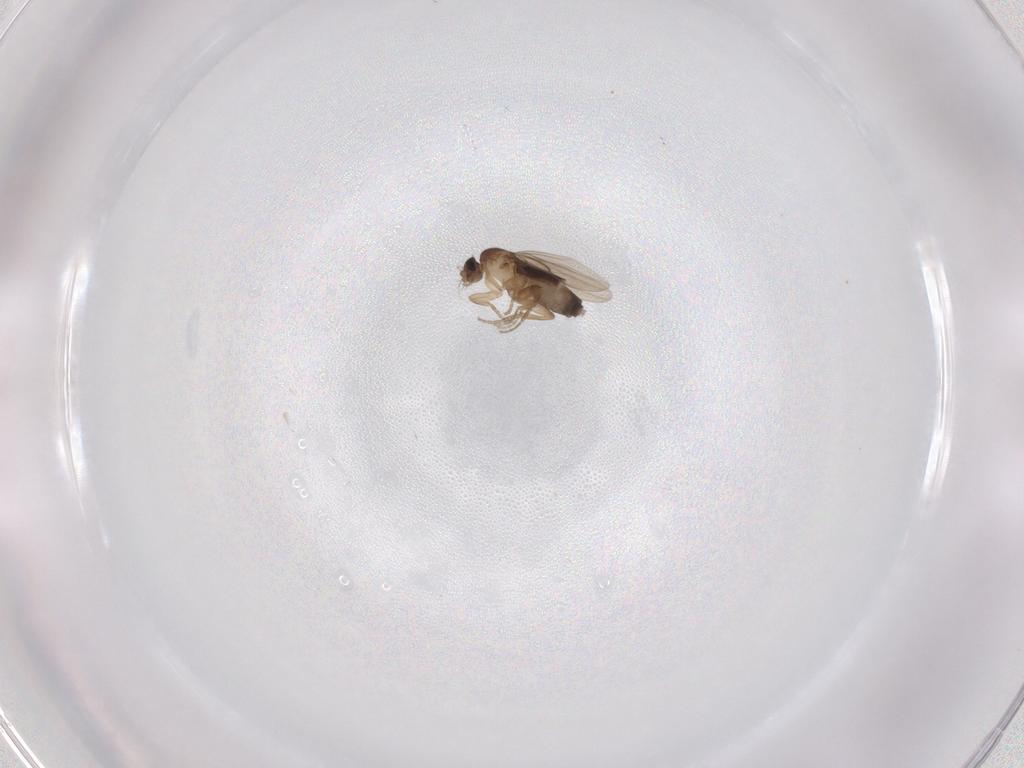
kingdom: Animalia
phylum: Arthropoda
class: Insecta
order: Diptera
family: Phoridae
